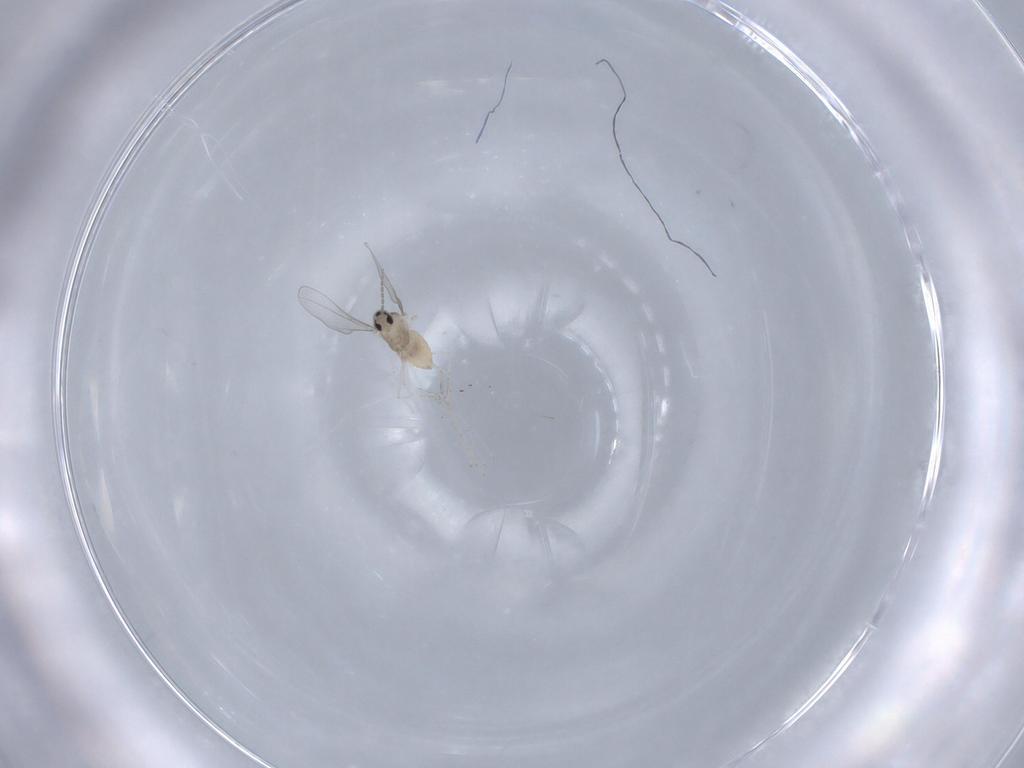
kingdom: Animalia
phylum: Arthropoda
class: Insecta
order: Diptera
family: Cecidomyiidae
